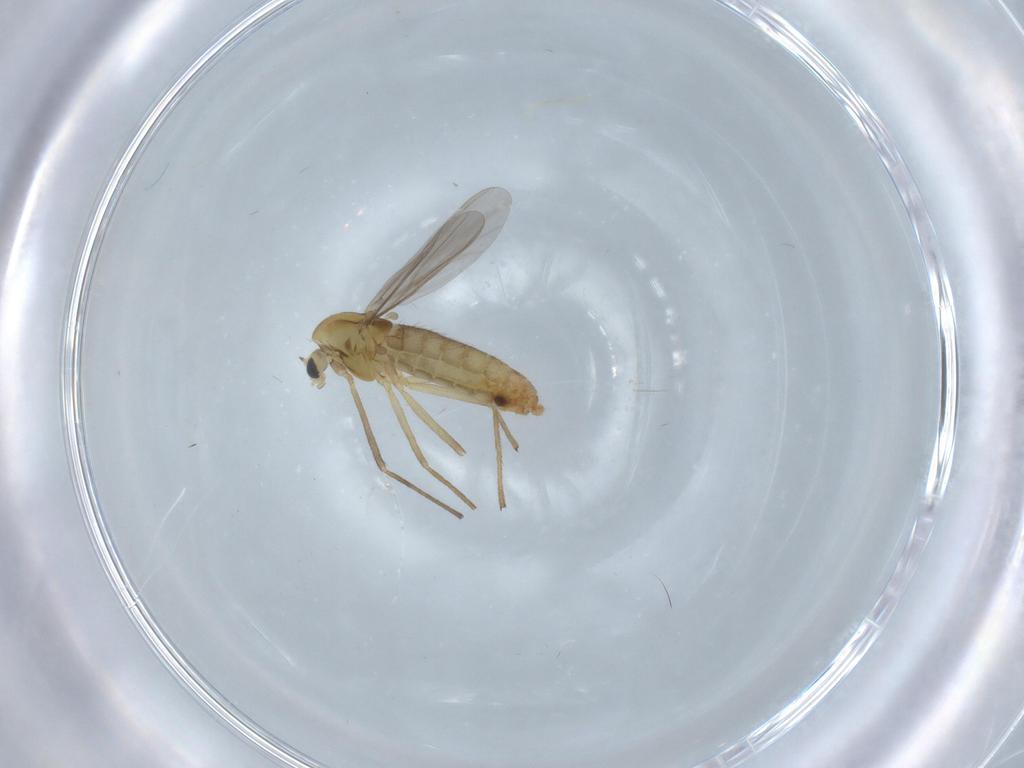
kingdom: Animalia
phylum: Arthropoda
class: Insecta
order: Diptera
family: Chironomidae
